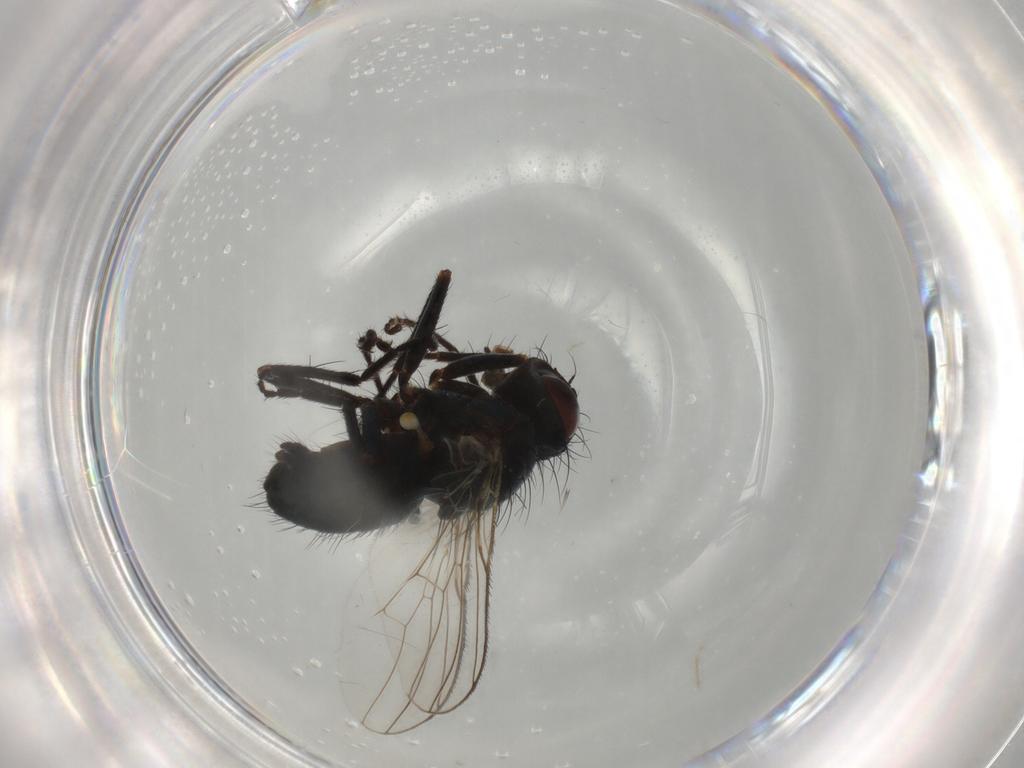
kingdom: Animalia
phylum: Arthropoda
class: Insecta
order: Diptera
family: Muscidae
